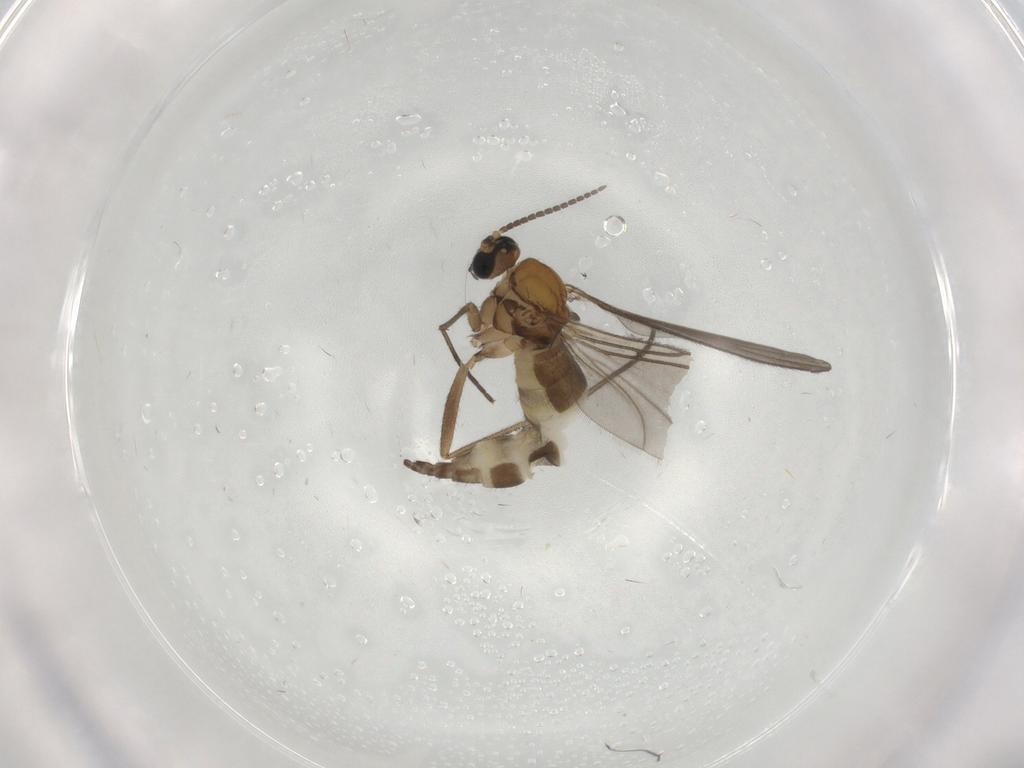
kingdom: Animalia
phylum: Arthropoda
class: Insecta
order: Diptera
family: Sciaridae
